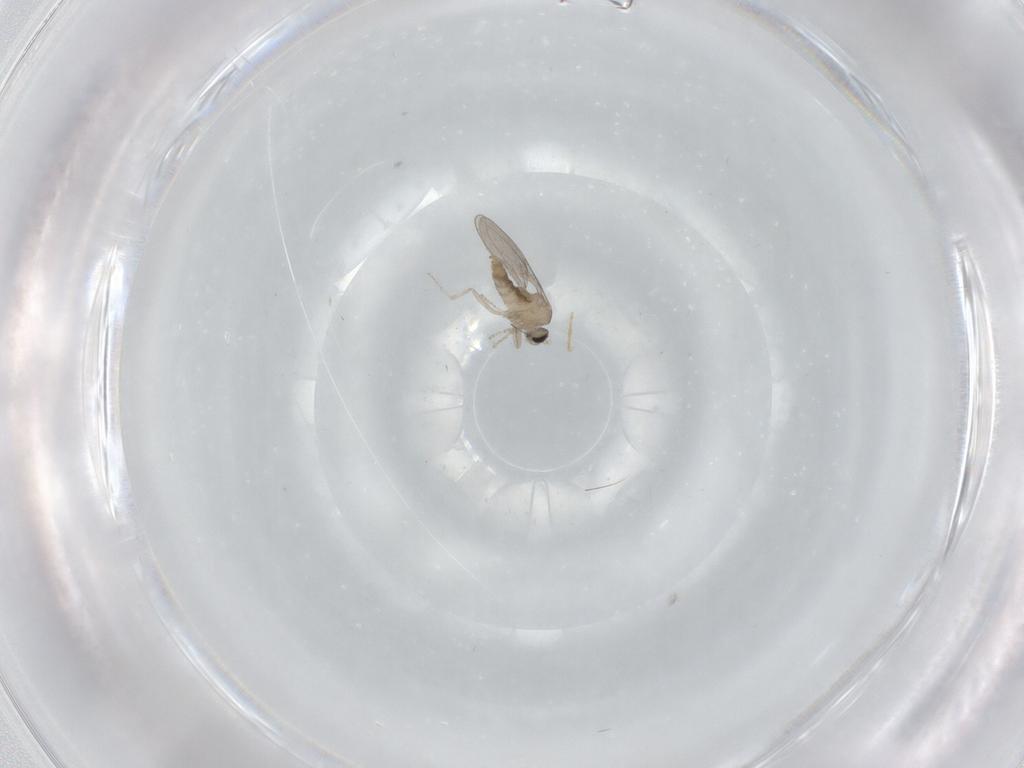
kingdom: Animalia
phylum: Arthropoda
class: Insecta
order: Diptera
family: Cecidomyiidae
